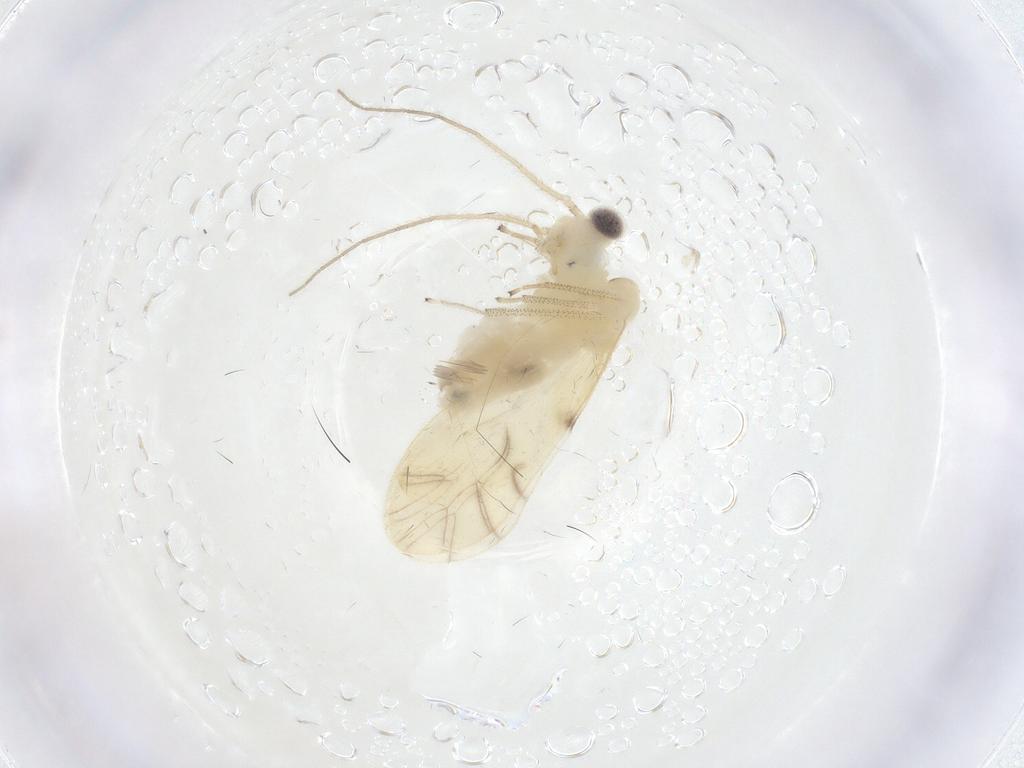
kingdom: Animalia
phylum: Arthropoda
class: Insecta
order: Psocodea
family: Caeciliusidae
